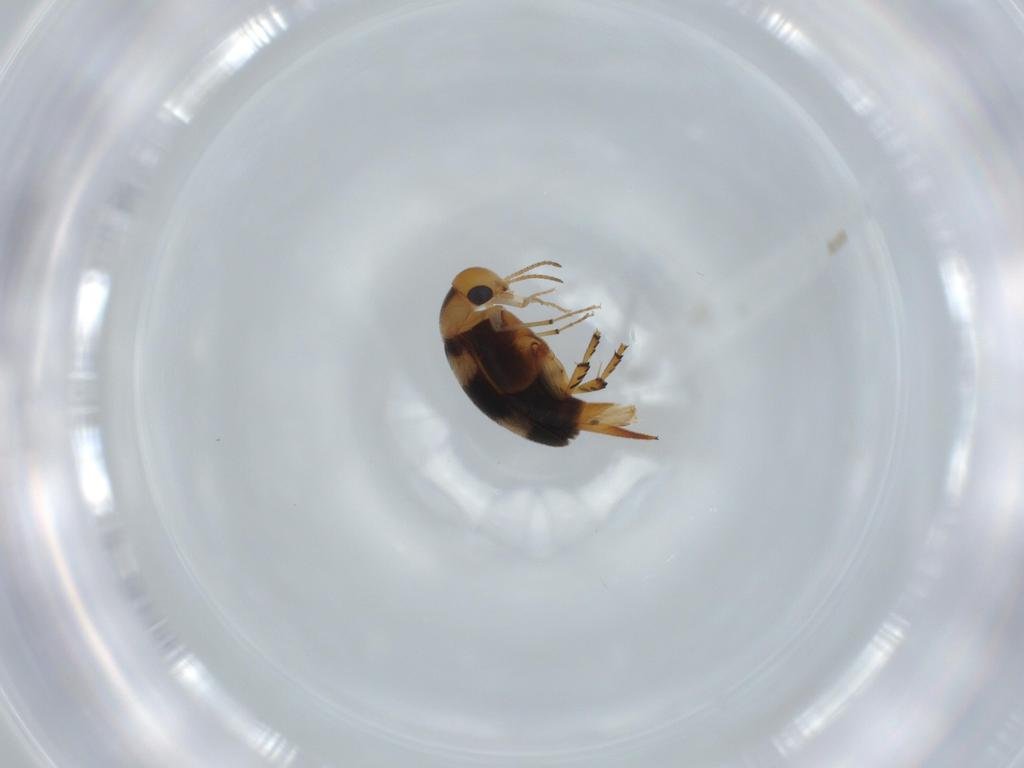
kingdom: Animalia
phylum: Arthropoda
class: Insecta
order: Coleoptera
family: Mordellidae
